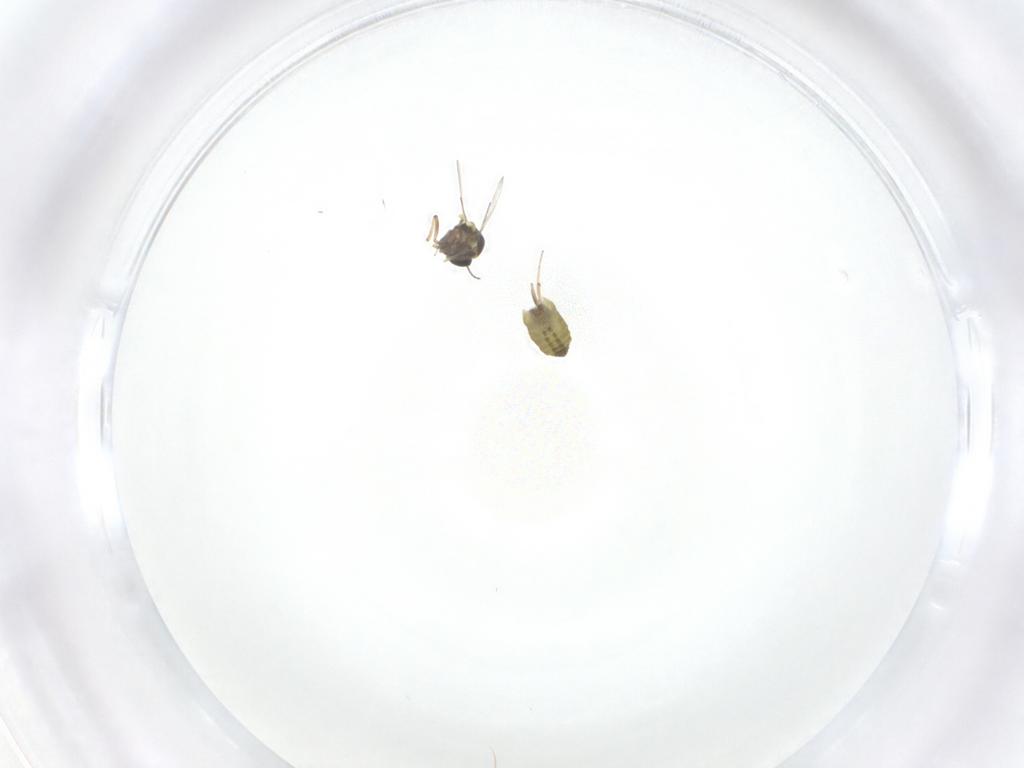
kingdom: Animalia
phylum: Arthropoda
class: Insecta
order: Diptera
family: Ceratopogonidae
